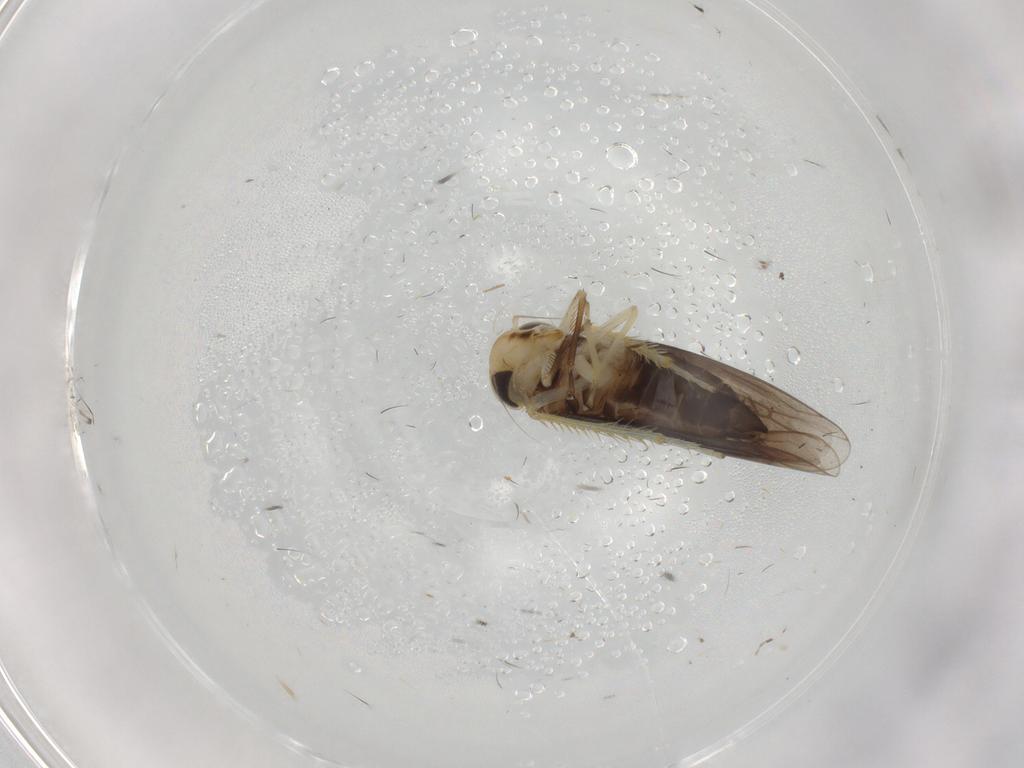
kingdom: Animalia
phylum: Arthropoda
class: Insecta
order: Hemiptera
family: Cicadellidae
